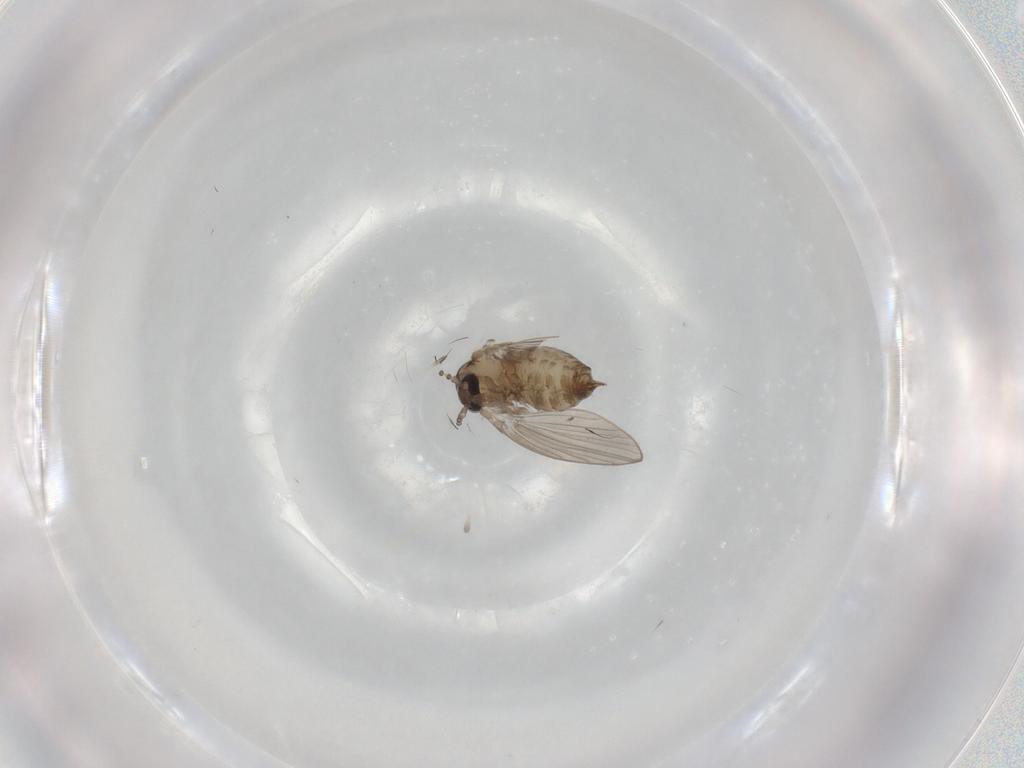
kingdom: Animalia
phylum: Arthropoda
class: Insecta
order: Diptera
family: Psychodidae
